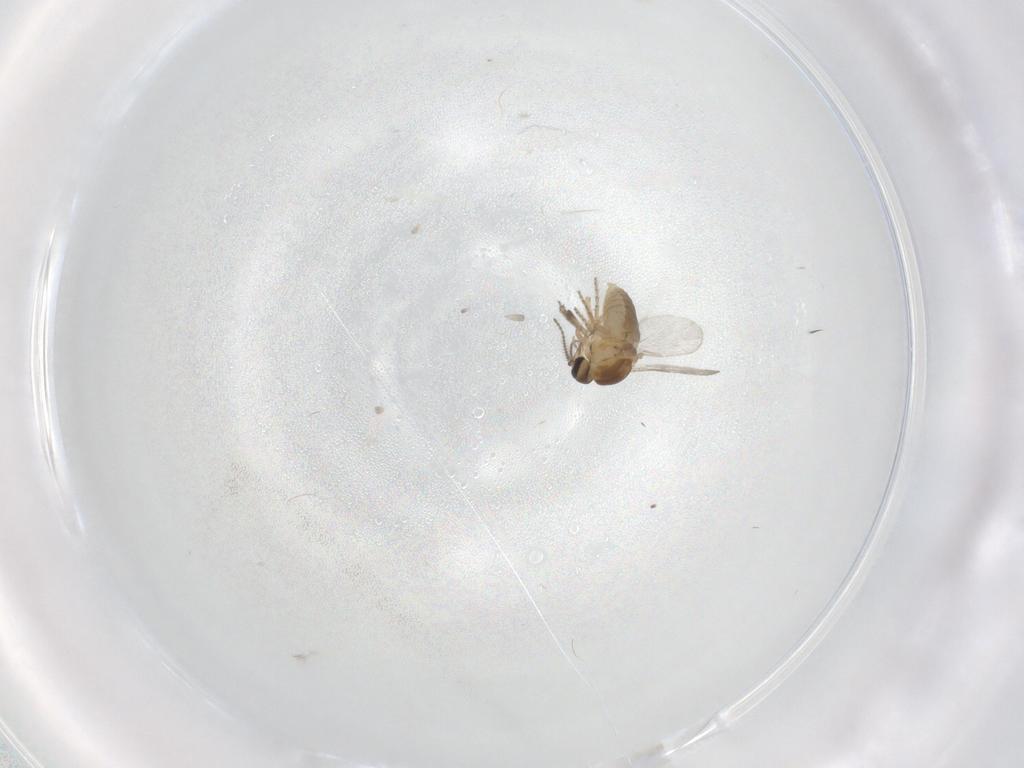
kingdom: Animalia
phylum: Arthropoda
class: Insecta
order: Diptera
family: Ceratopogonidae
